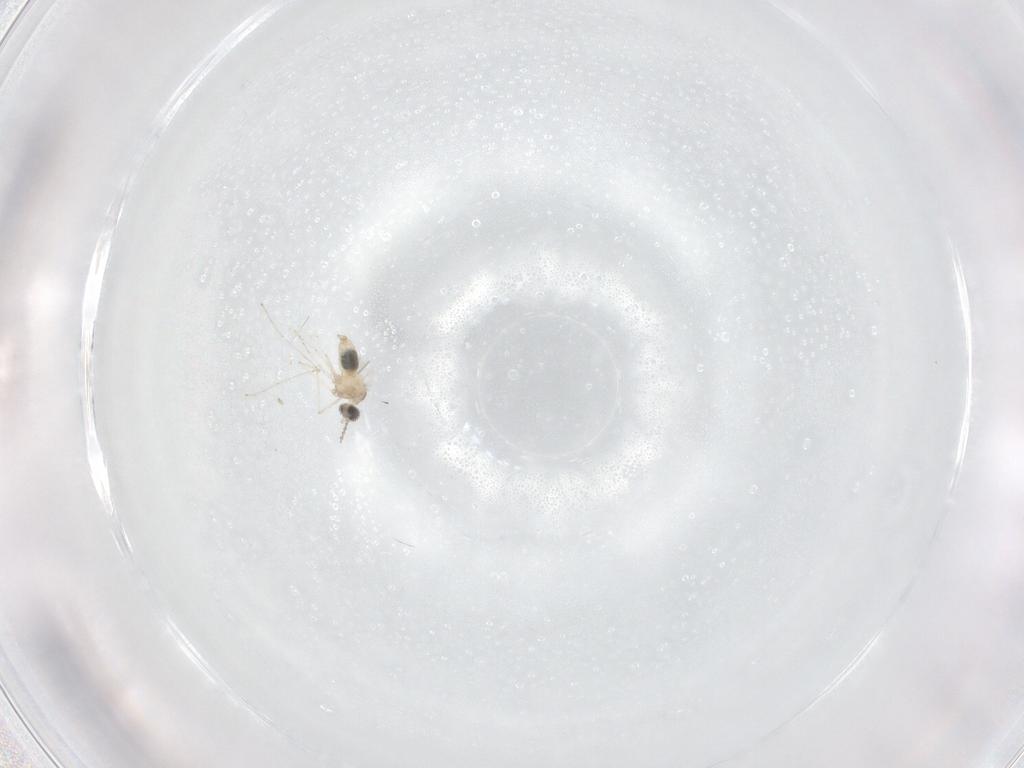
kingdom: Animalia
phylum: Arthropoda
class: Insecta
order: Diptera
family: Cecidomyiidae
